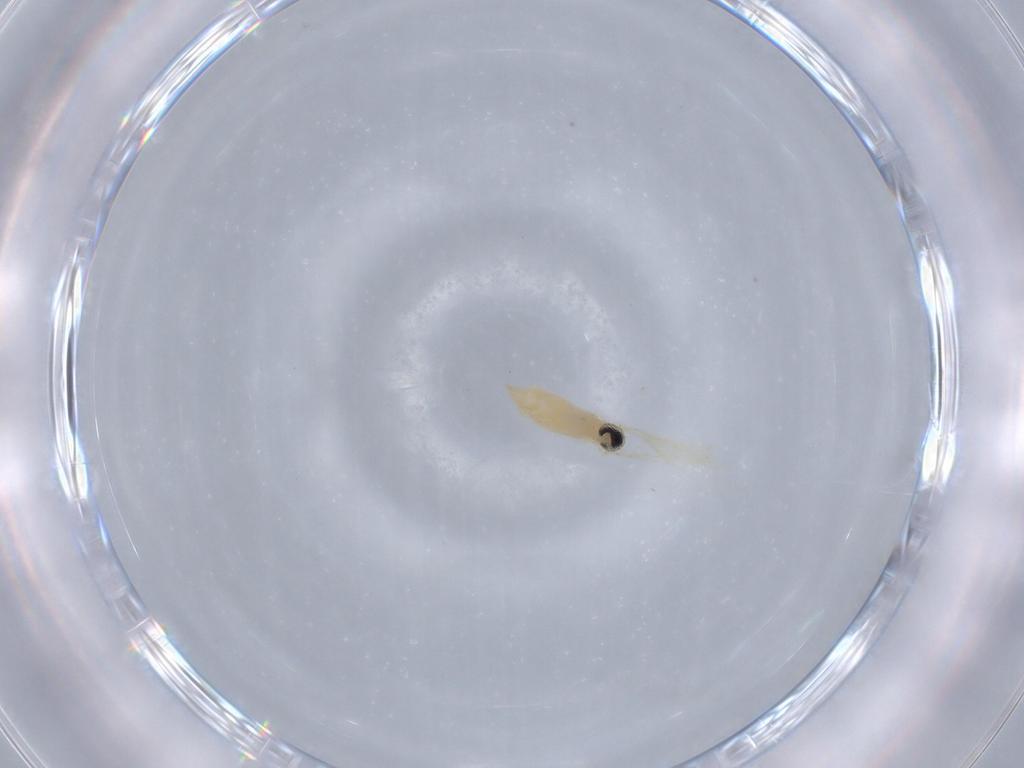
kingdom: Animalia
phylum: Arthropoda
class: Insecta
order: Diptera
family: Cecidomyiidae
